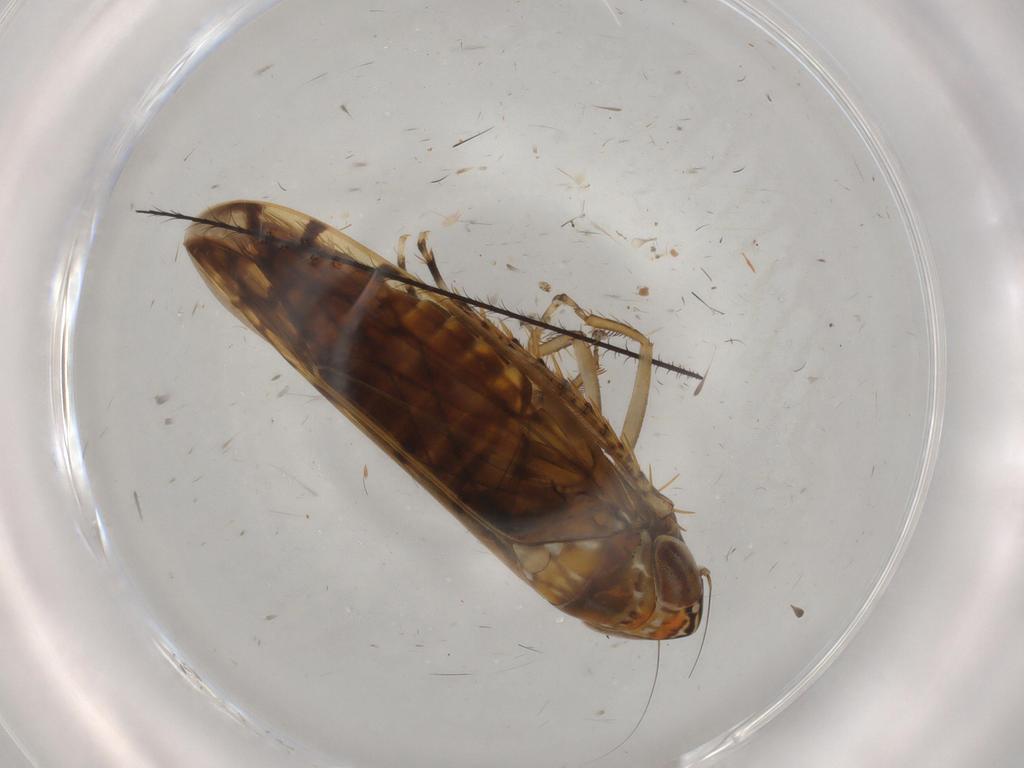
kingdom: Animalia
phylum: Arthropoda
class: Insecta
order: Hemiptera
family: Cicadellidae
